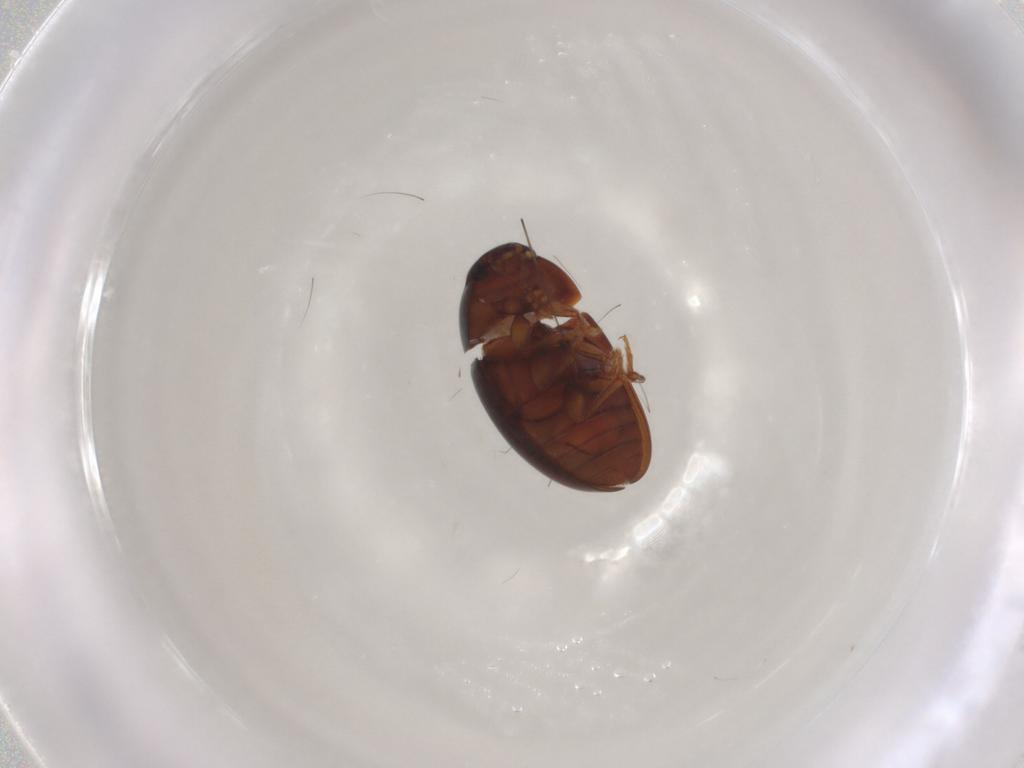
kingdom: Animalia
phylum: Arthropoda
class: Insecta
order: Coleoptera
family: Phalacridae
